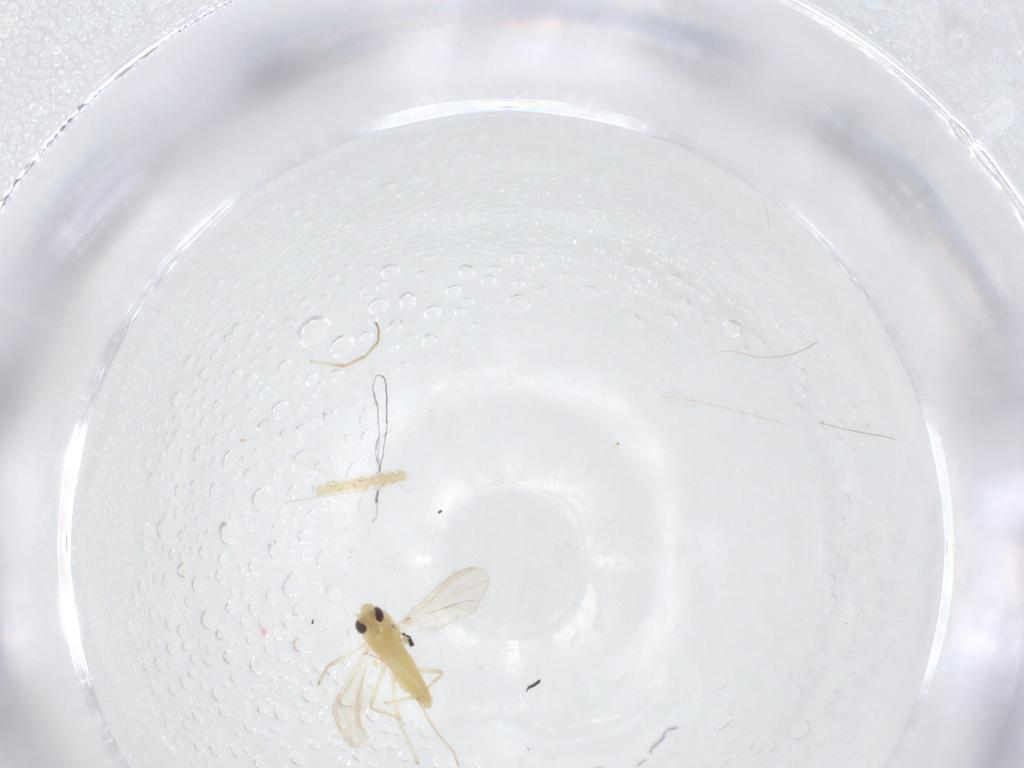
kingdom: Animalia
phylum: Arthropoda
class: Insecta
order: Diptera
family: Chironomidae
